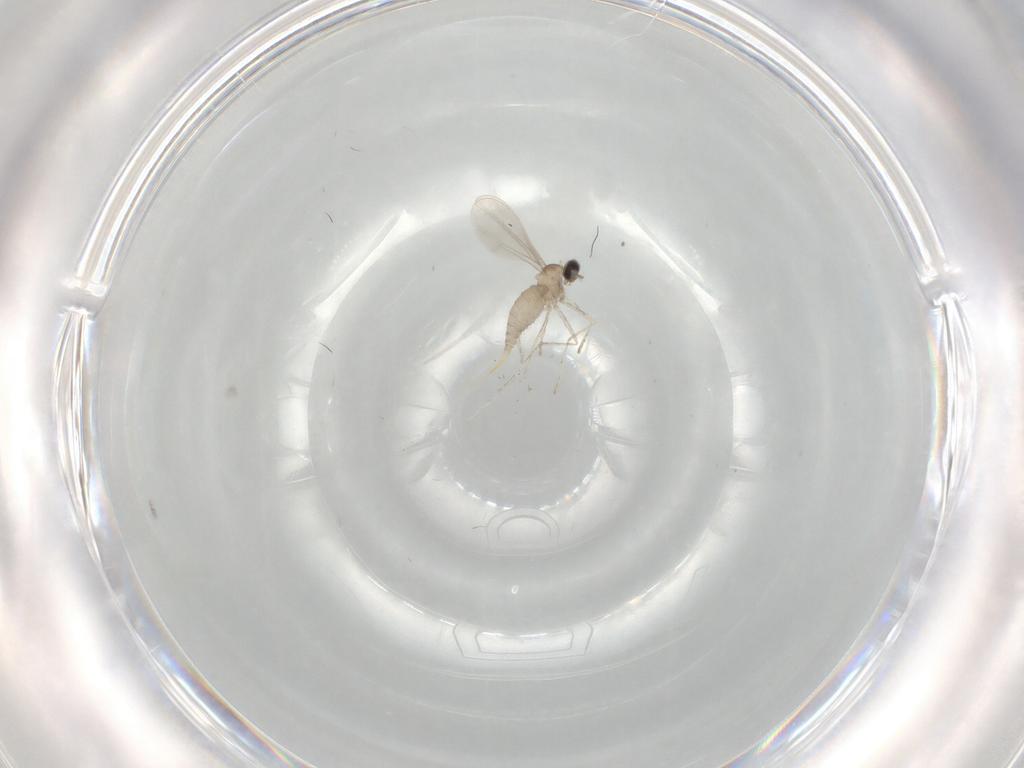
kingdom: Animalia
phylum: Arthropoda
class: Insecta
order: Diptera
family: Cecidomyiidae
